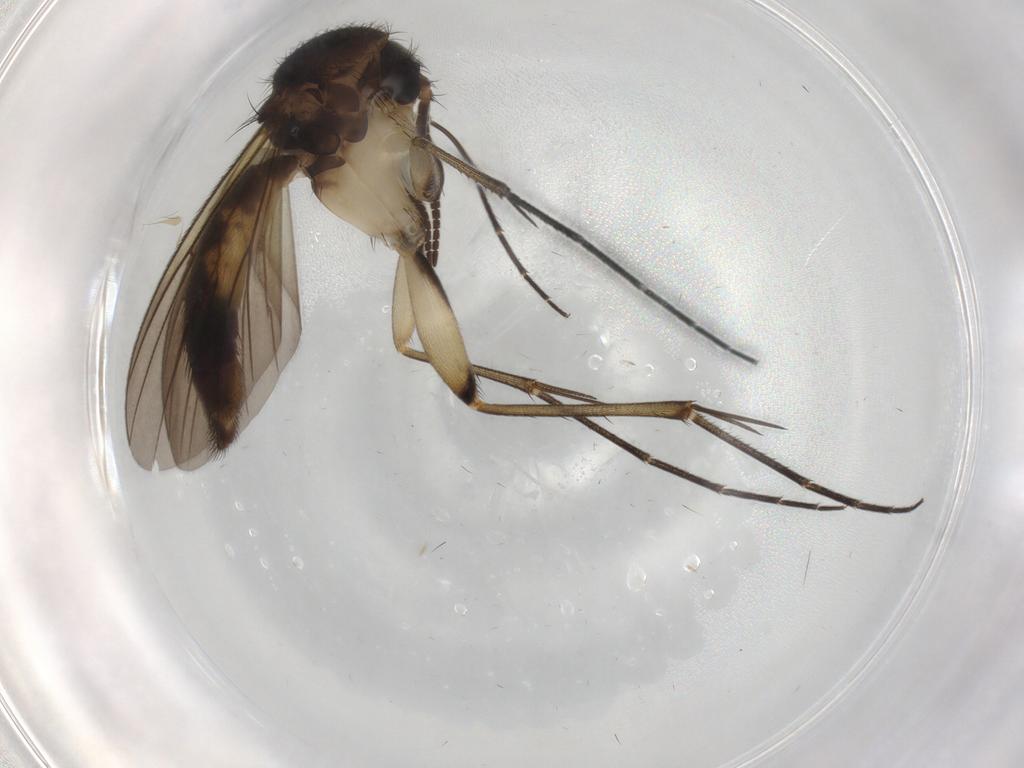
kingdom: Animalia
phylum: Arthropoda
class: Insecta
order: Diptera
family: Mycetophilidae
